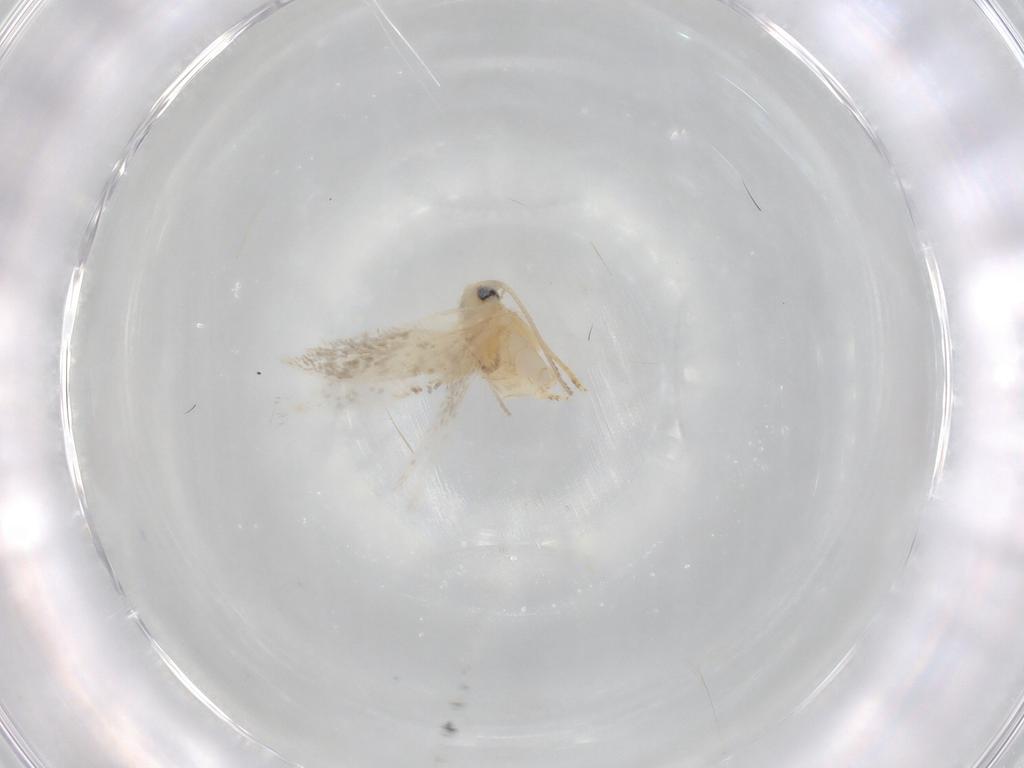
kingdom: Animalia
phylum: Arthropoda
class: Insecta
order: Lepidoptera
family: Opostegidae
